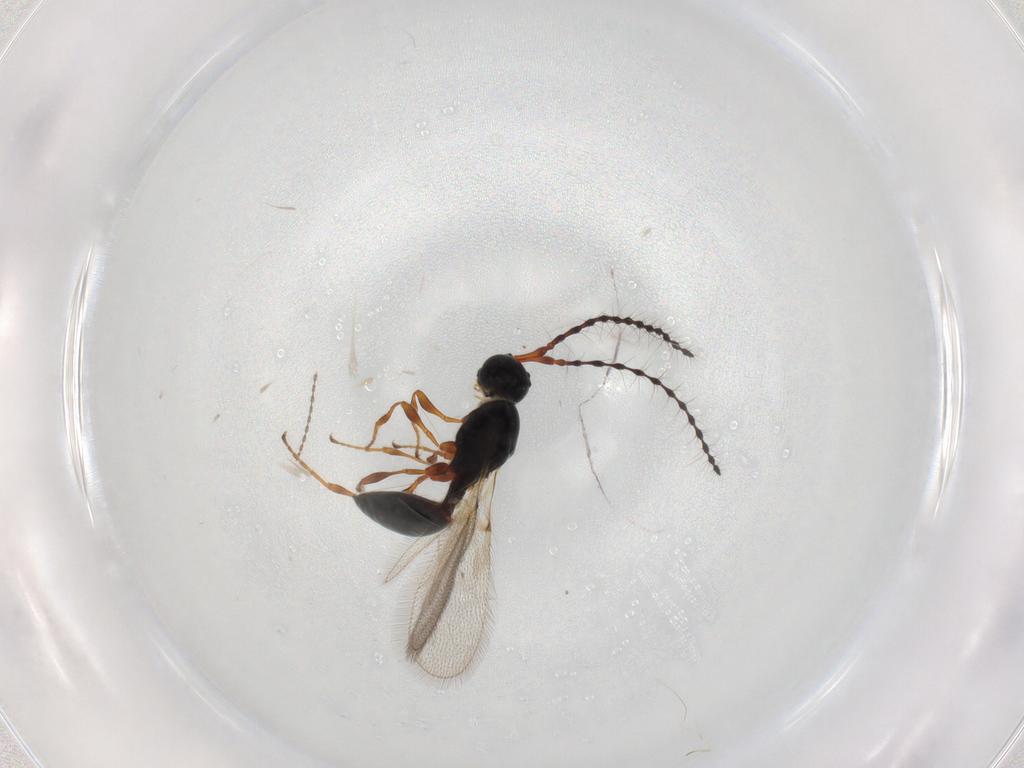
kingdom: Animalia
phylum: Arthropoda
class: Insecta
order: Hymenoptera
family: Diapriidae
